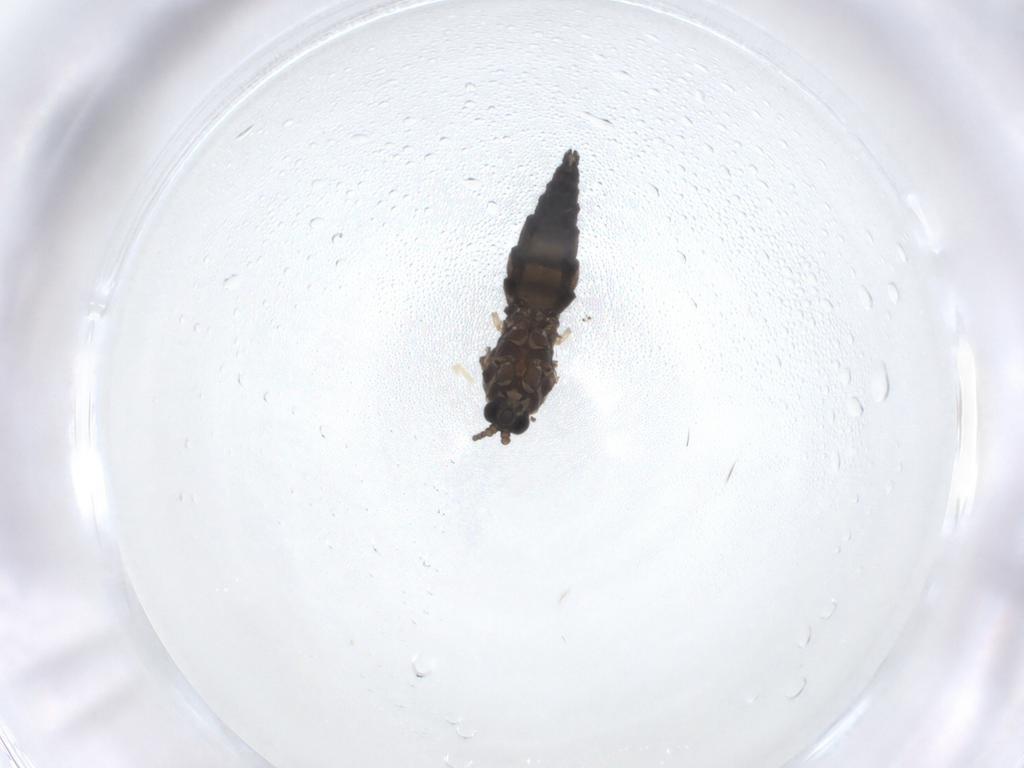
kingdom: Animalia
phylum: Arthropoda
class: Insecta
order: Diptera
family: Sciaridae
